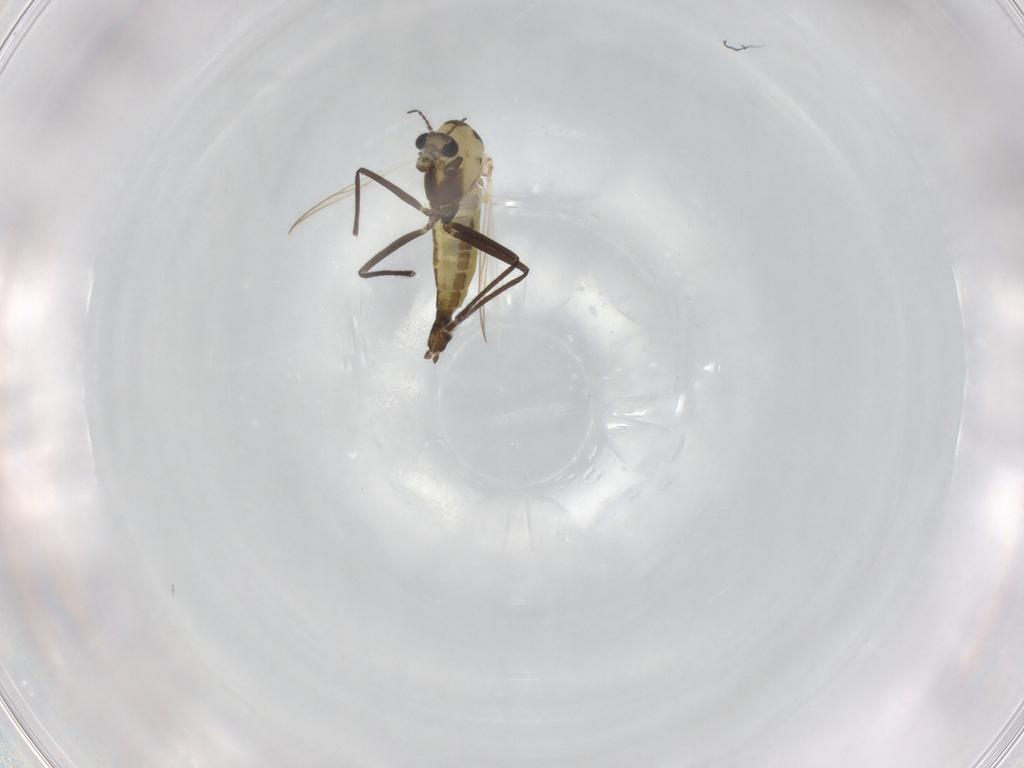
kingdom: Animalia
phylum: Arthropoda
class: Insecta
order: Diptera
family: Chironomidae
